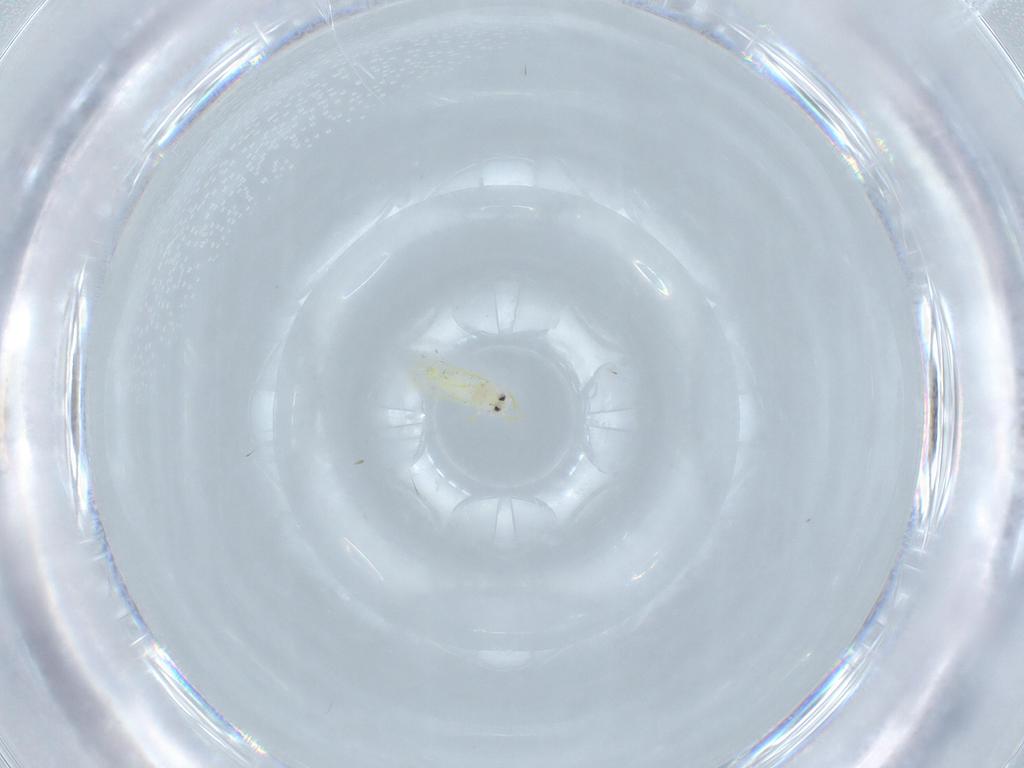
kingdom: Animalia
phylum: Arthropoda
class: Insecta
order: Hemiptera
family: Aleyrodidae
